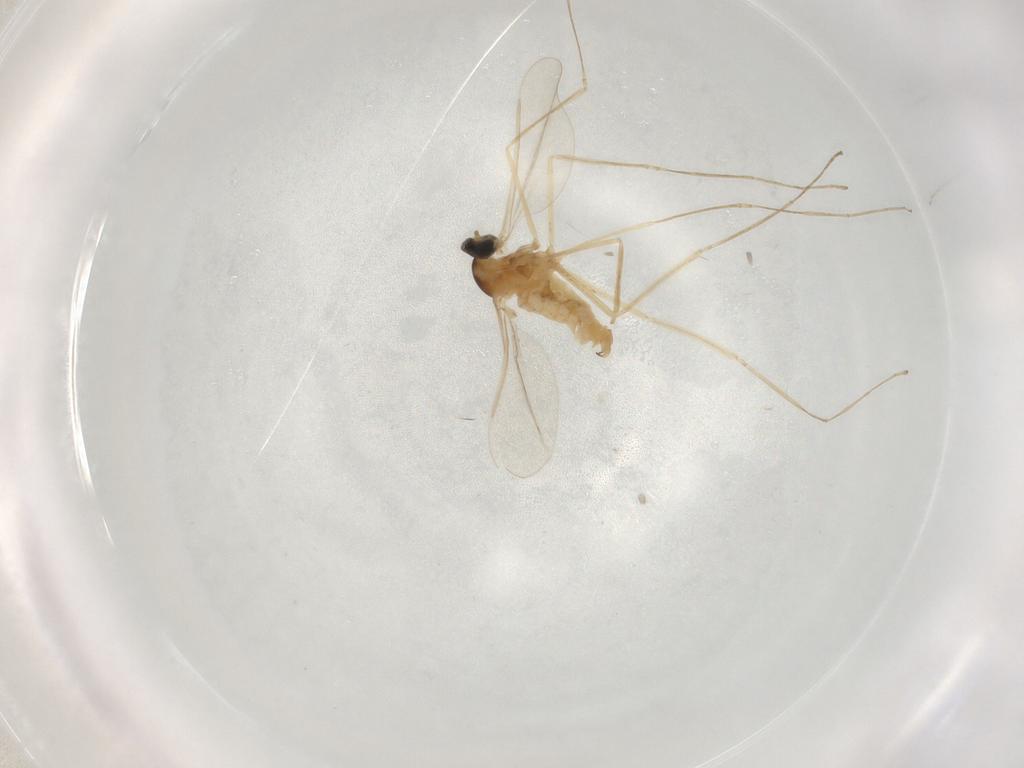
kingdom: Animalia
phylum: Arthropoda
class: Insecta
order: Diptera
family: Cecidomyiidae
